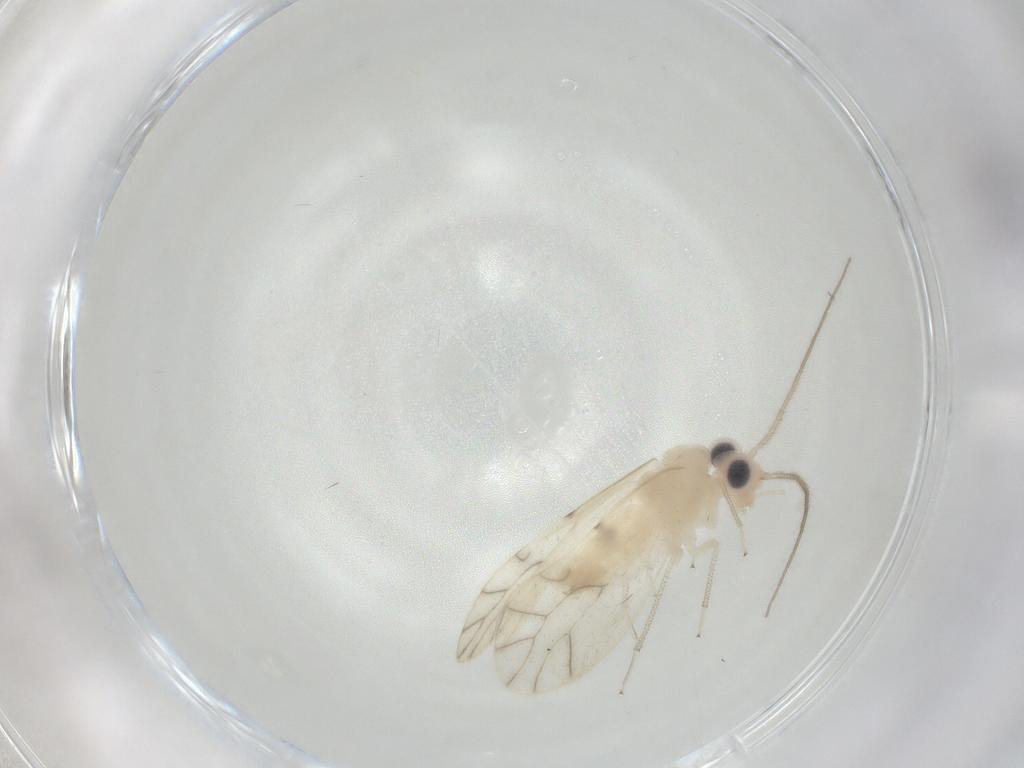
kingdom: Animalia
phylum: Arthropoda
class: Insecta
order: Psocodea
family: Caeciliusidae
